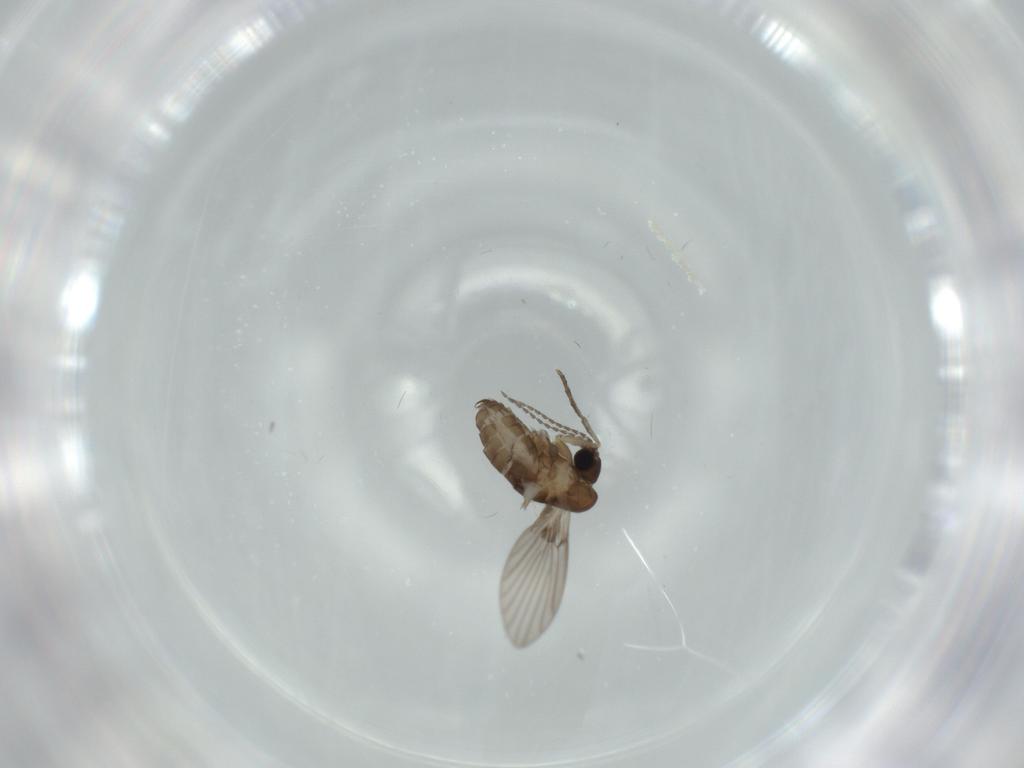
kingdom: Animalia
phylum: Arthropoda
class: Insecta
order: Diptera
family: Psychodidae
